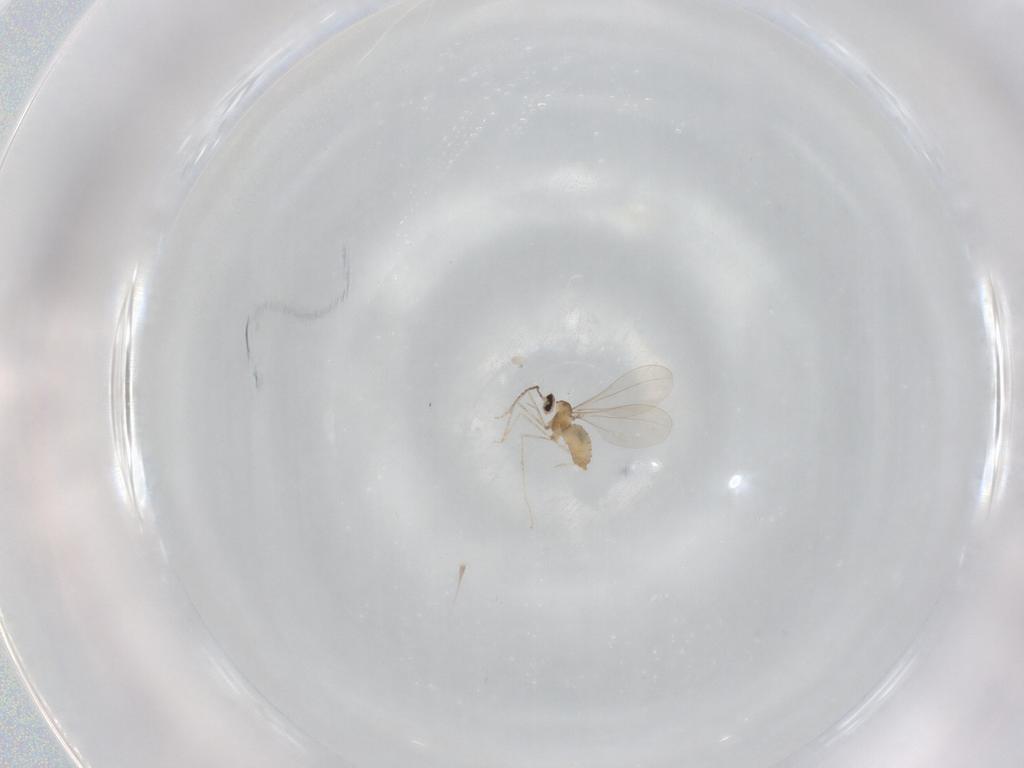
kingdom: Animalia
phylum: Arthropoda
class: Insecta
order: Diptera
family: Cecidomyiidae
